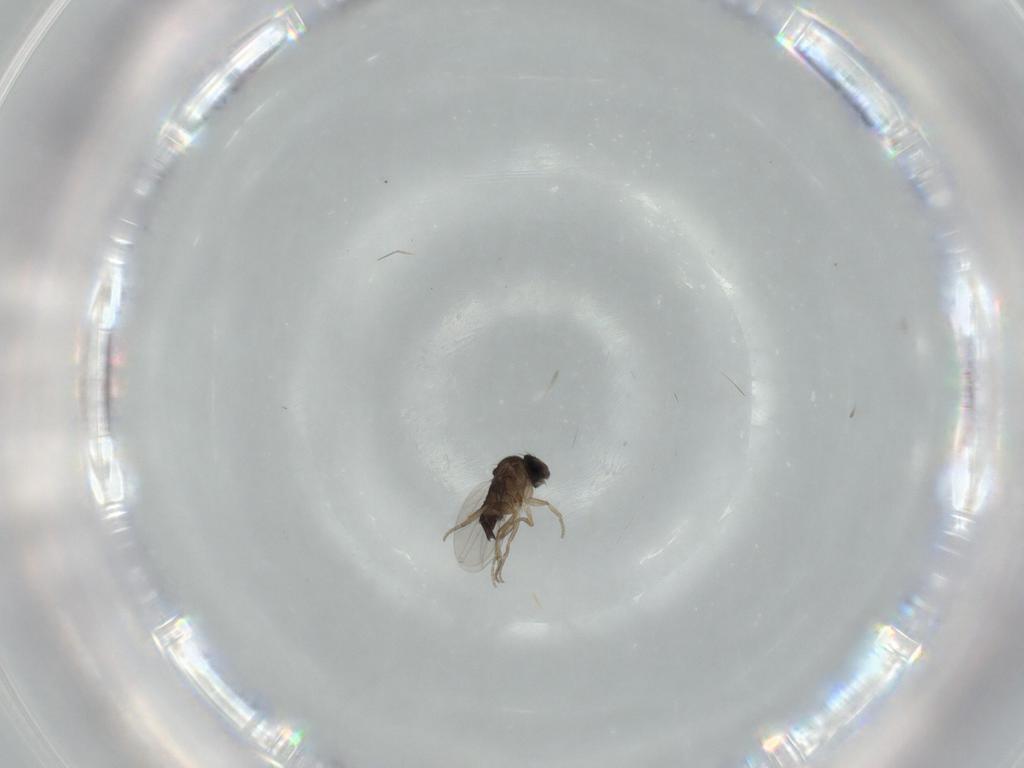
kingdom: Animalia
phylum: Arthropoda
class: Insecta
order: Diptera
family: Phoridae
